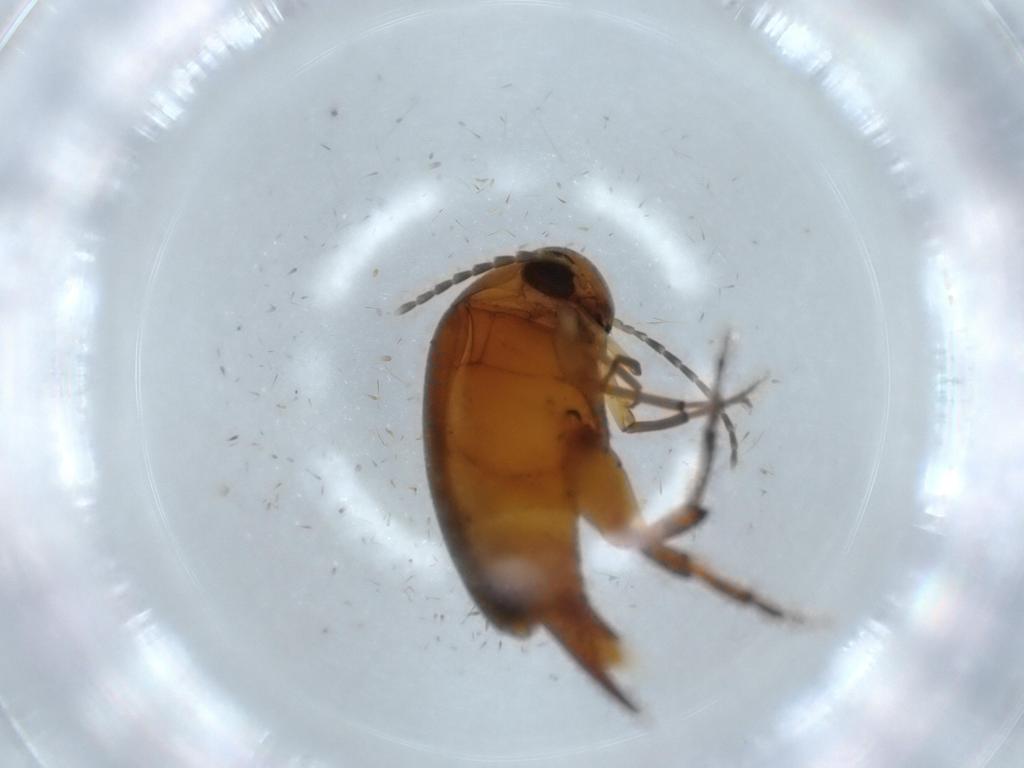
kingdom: Animalia
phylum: Arthropoda
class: Insecta
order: Coleoptera
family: Mordellidae
